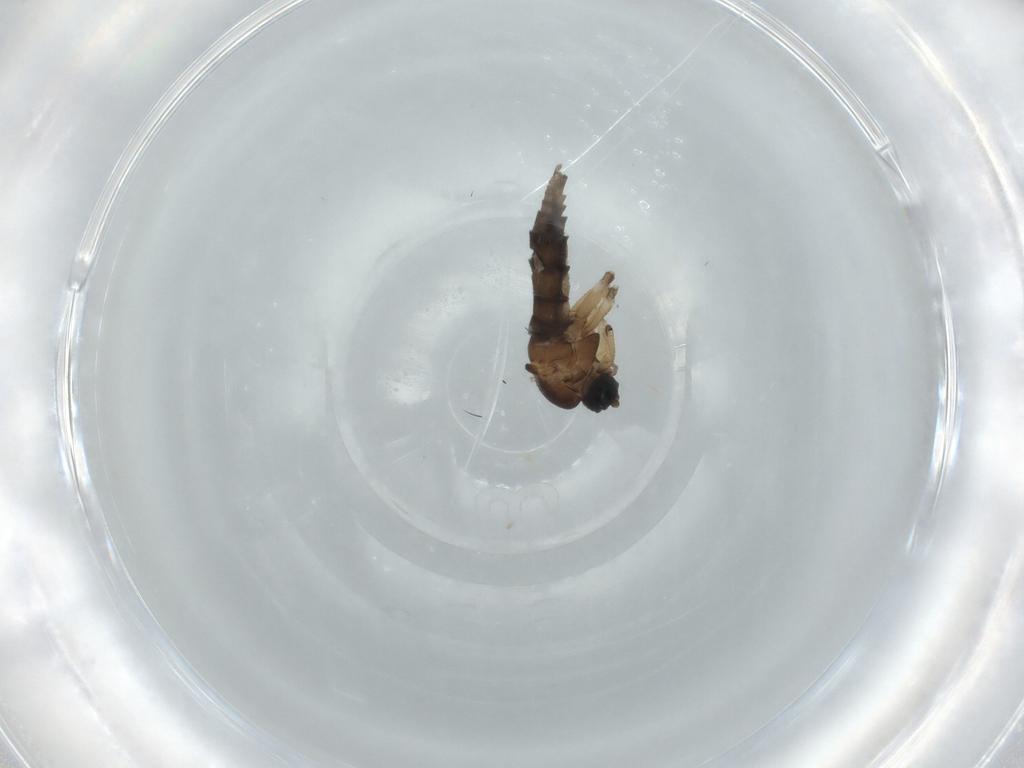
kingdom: Animalia
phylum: Arthropoda
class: Insecta
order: Diptera
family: Sciaridae
